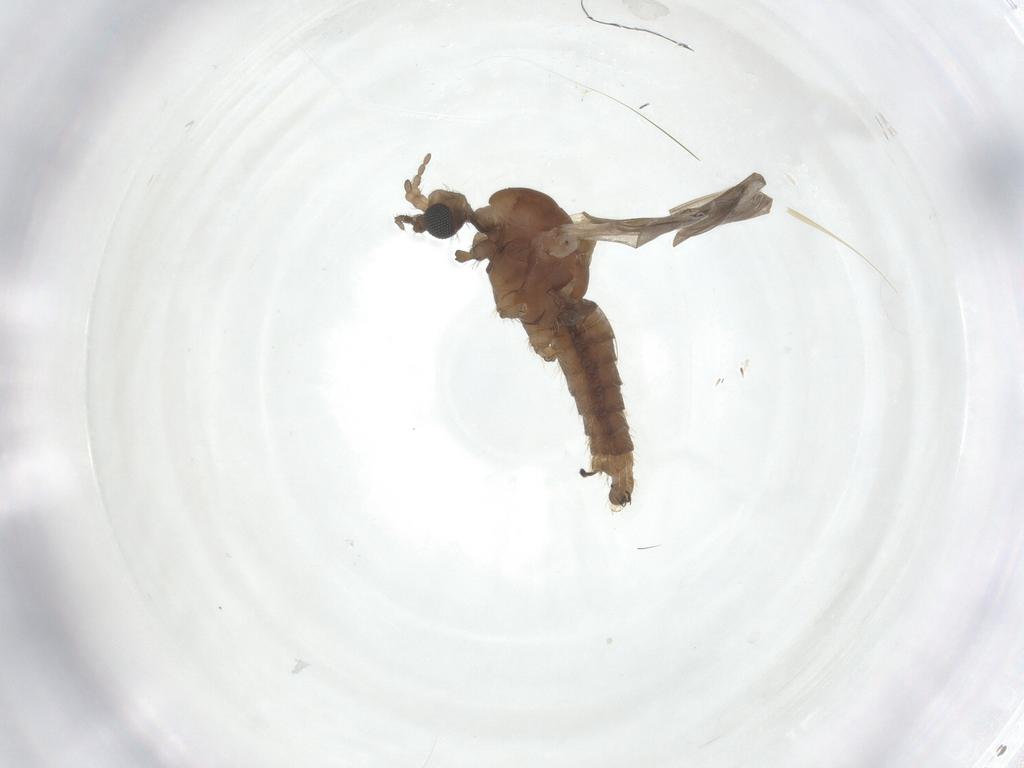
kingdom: Animalia
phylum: Arthropoda
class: Insecta
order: Diptera
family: Limoniidae
